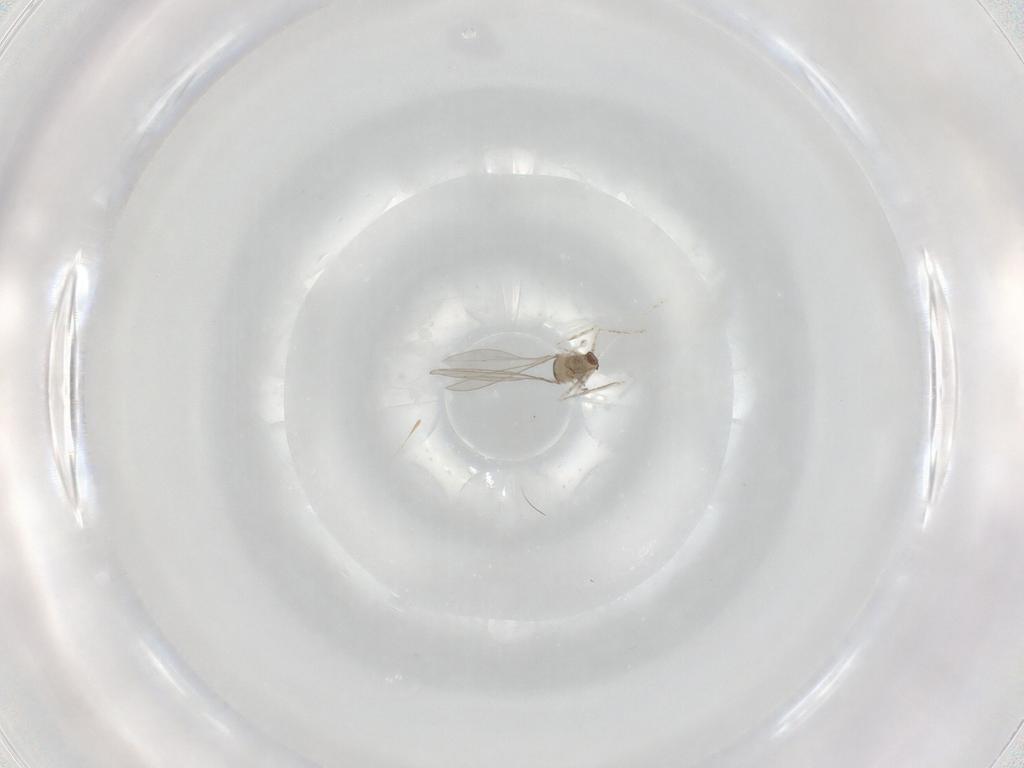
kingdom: Animalia
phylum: Arthropoda
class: Insecta
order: Diptera
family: Cecidomyiidae
